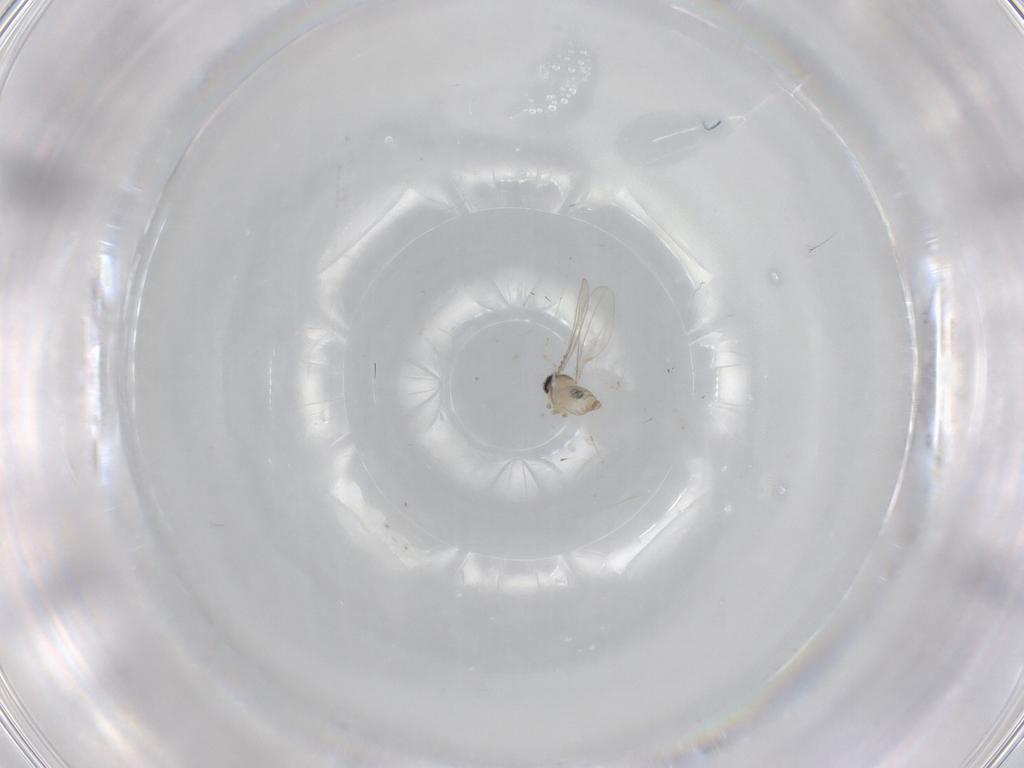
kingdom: Animalia
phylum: Arthropoda
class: Insecta
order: Diptera
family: Cecidomyiidae
